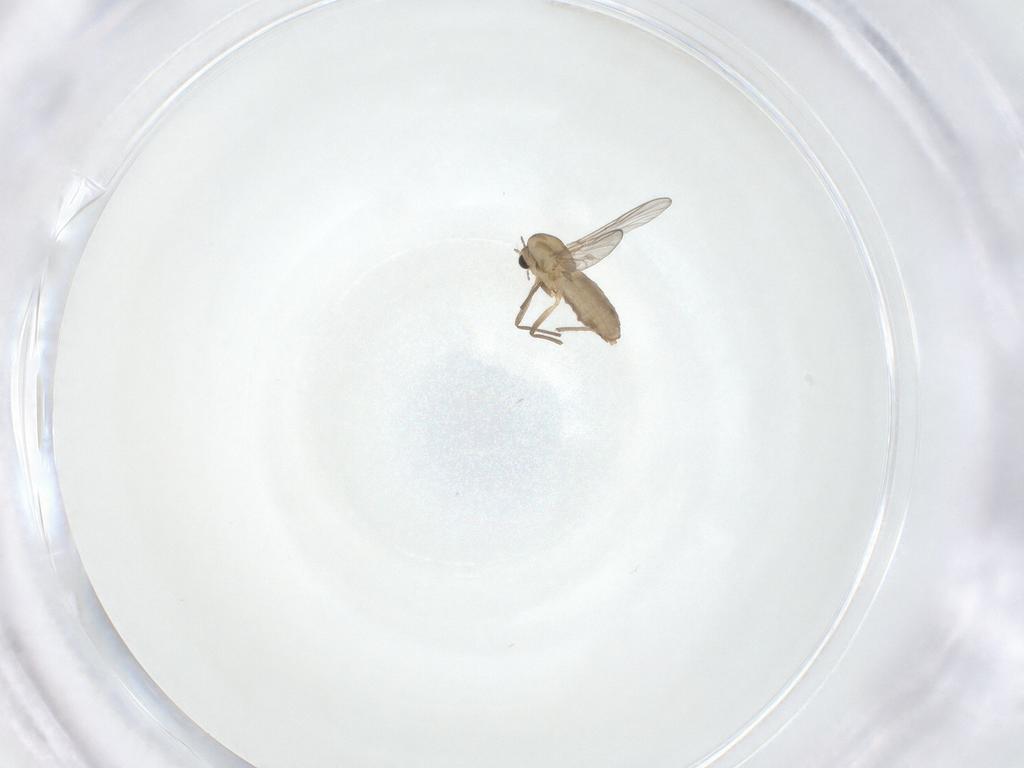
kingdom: Animalia
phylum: Arthropoda
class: Insecta
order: Diptera
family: Chironomidae
